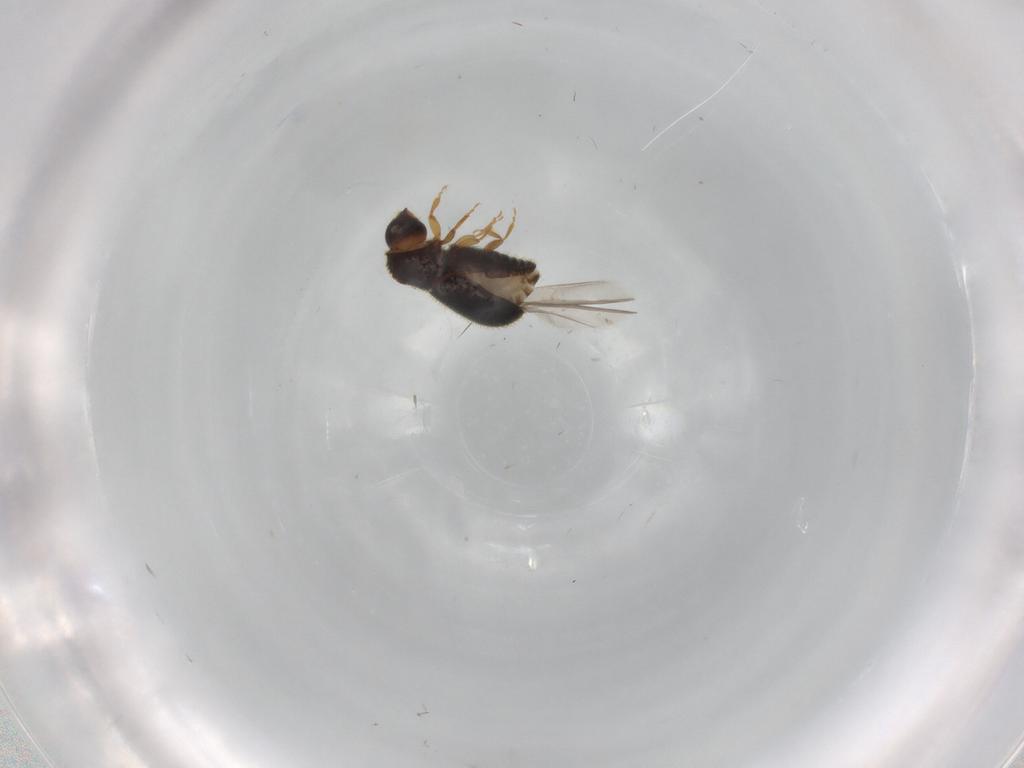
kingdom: Animalia
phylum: Arthropoda
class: Insecta
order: Coleoptera
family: Curculionidae
